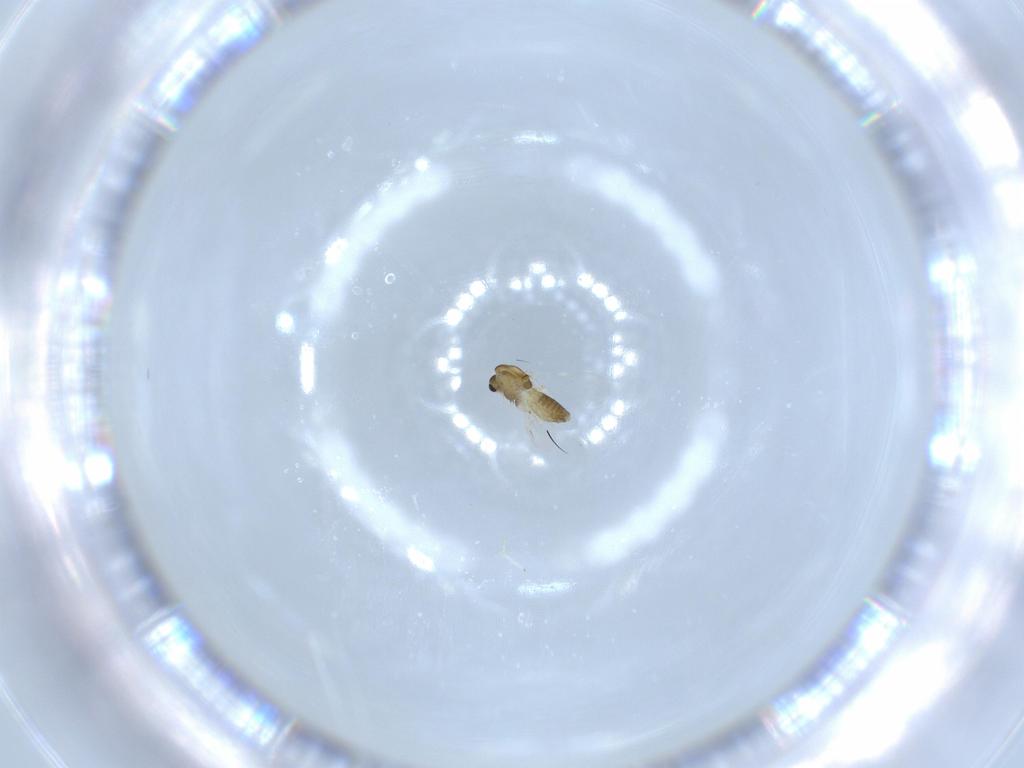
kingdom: Animalia
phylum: Arthropoda
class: Insecta
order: Diptera
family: Chironomidae
